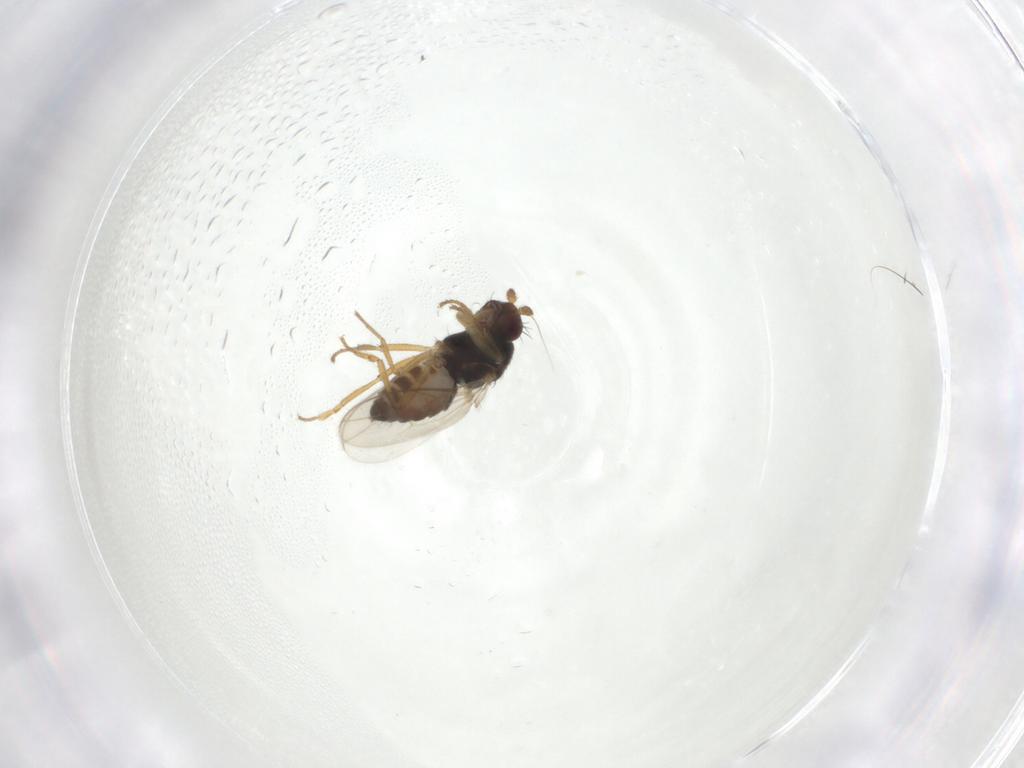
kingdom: Animalia
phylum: Arthropoda
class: Insecta
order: Diptera
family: Sphaeroceridae
